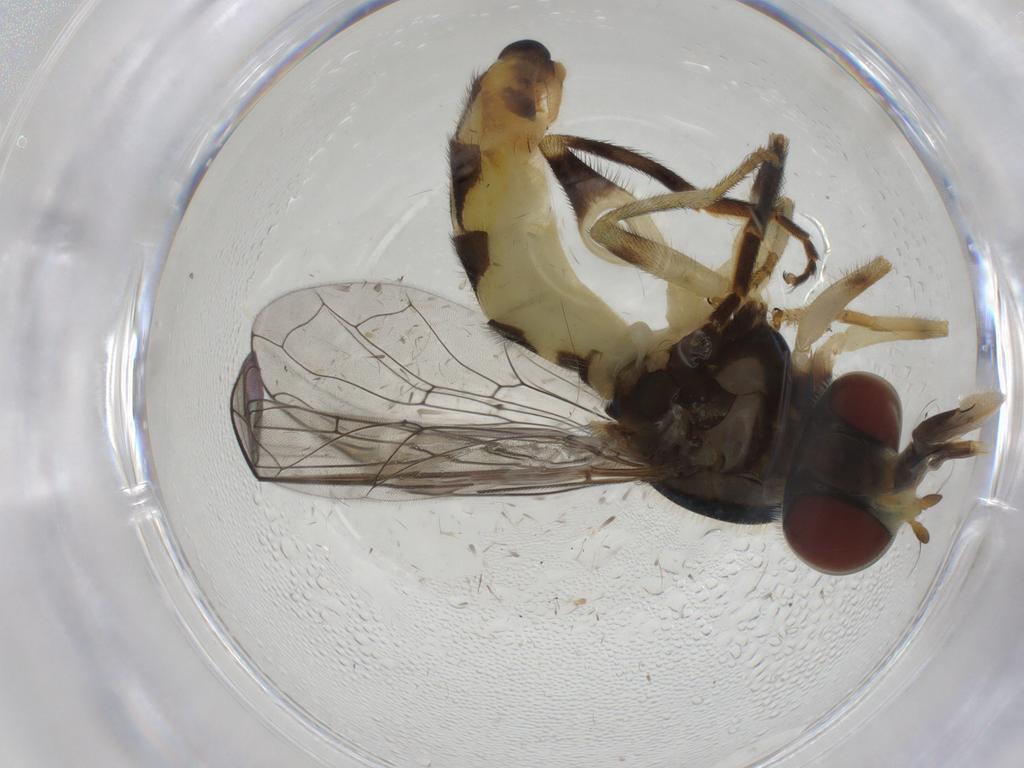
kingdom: Animalia
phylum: Arthropoda
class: Insecta
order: Diptera
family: Syrphidae
